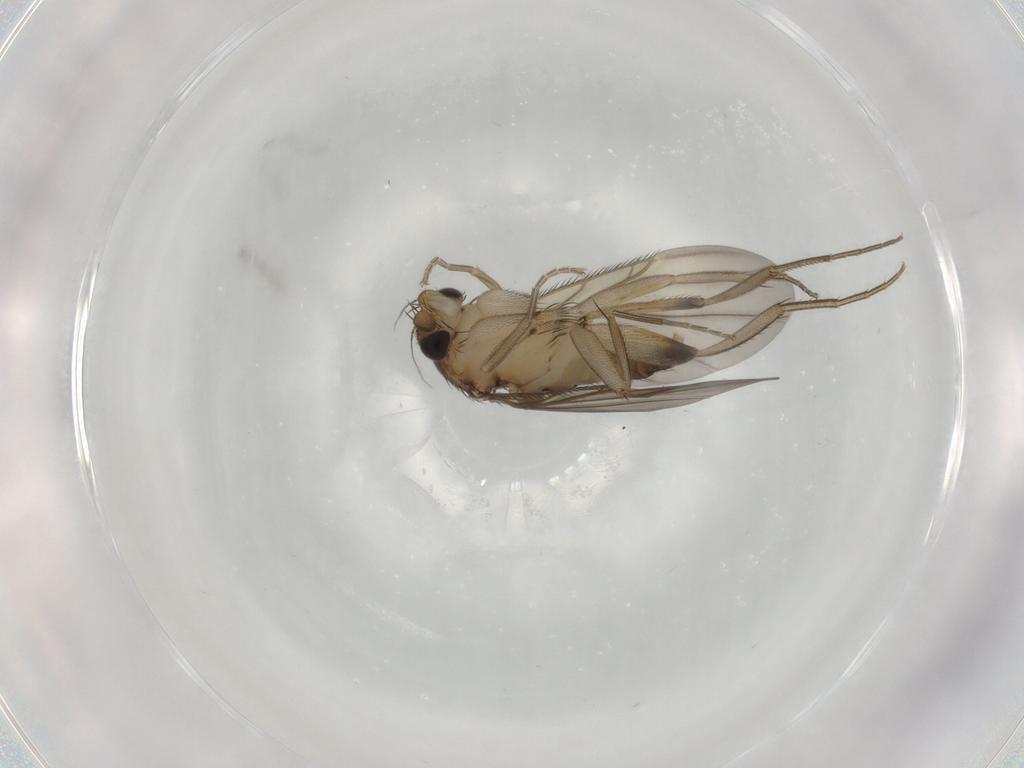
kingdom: Animalia
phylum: Arthropoda
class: Insecta
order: Diptera
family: Phoridae
